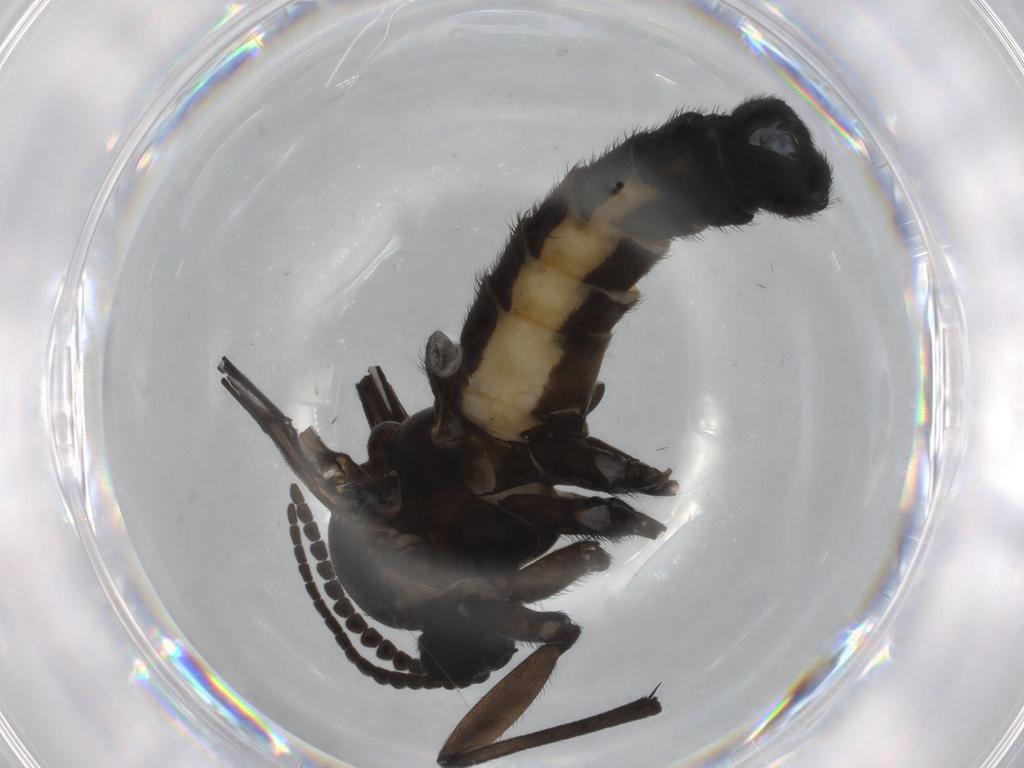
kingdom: Animalia
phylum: Arthropoda
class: Insecta
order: Diptera
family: Sciaridae
